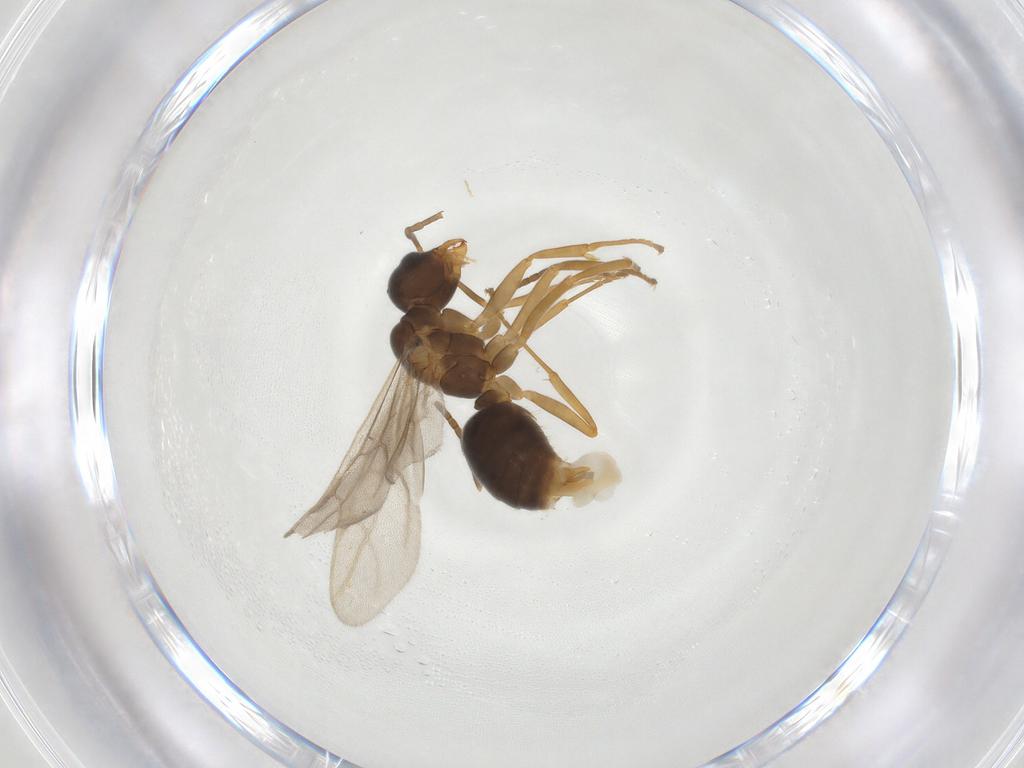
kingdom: Animalia
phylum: Arthropoda
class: Insecta
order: Hymenoptera
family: Formicidae
